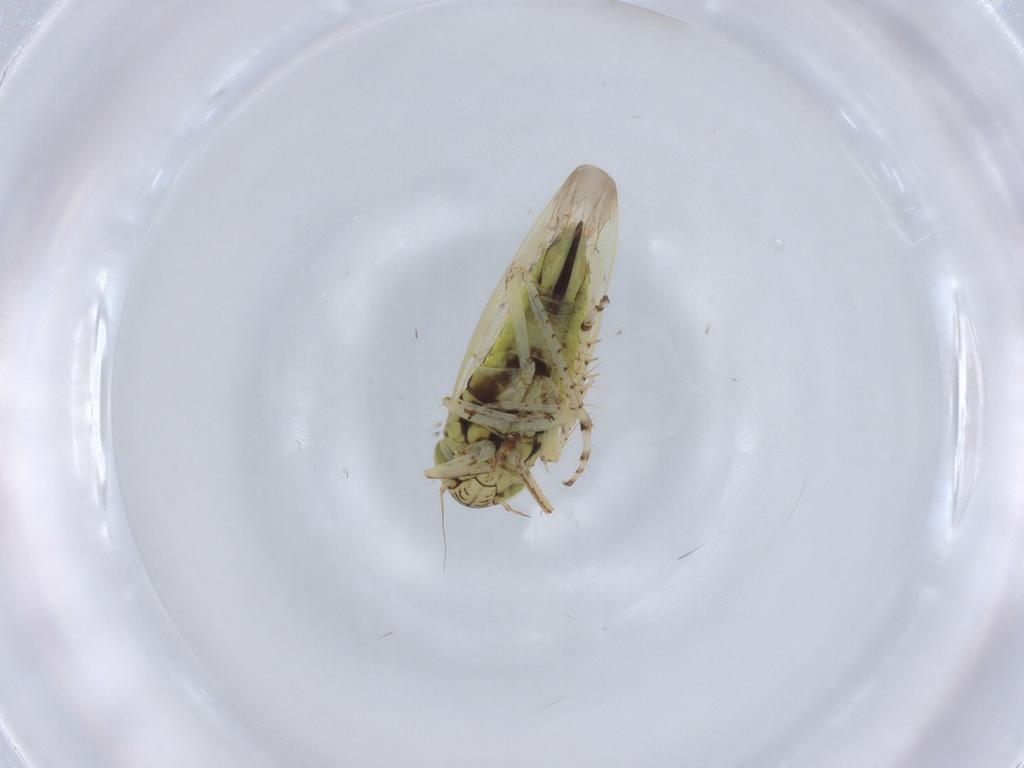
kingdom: Animalia
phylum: Arthropoda
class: Insecta
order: Hemiptera
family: Cicadellidae
